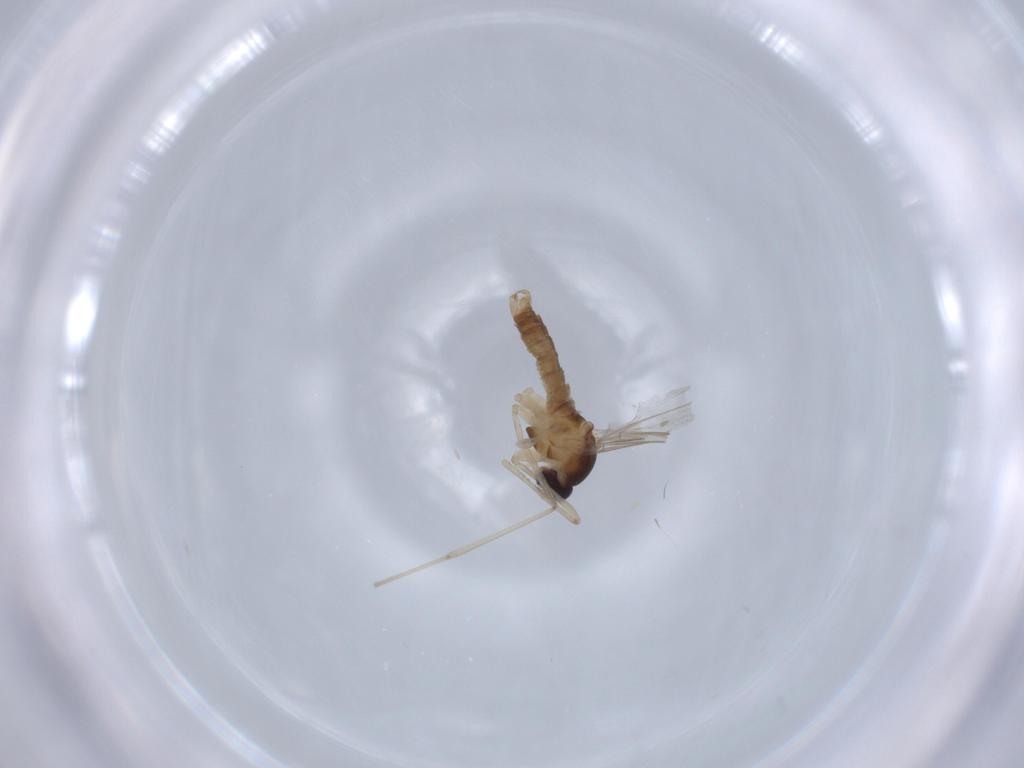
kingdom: Animalia
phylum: Arthropoda
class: Insecta
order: Diptera
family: Cecidomyiidae
